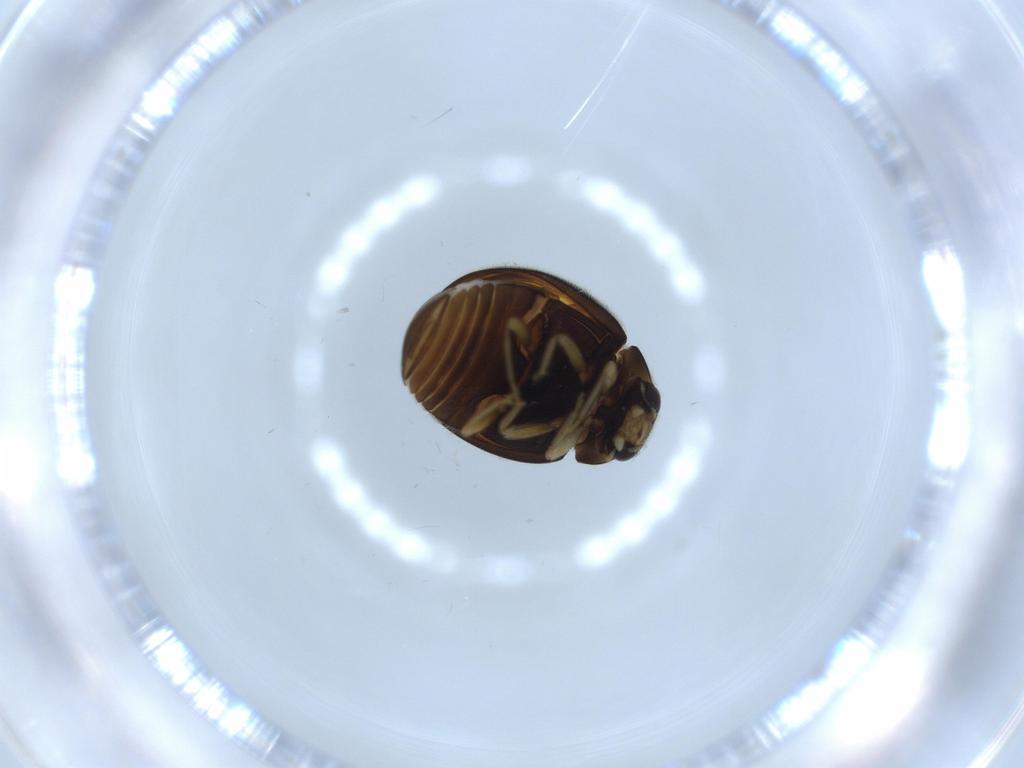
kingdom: Animalia
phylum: Arthropoda
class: Insecta
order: Coleoptera
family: Coccinellidae
